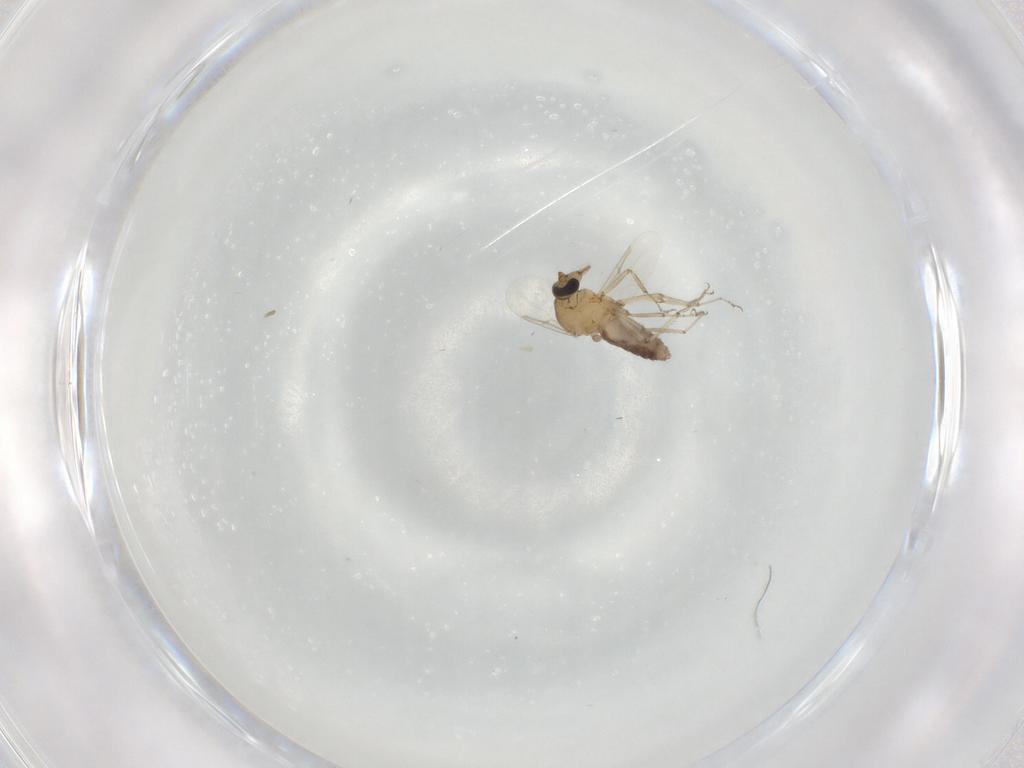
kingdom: Animalia
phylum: Arthropoda
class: Insecta
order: Diptera
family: Ceratopogonidae
